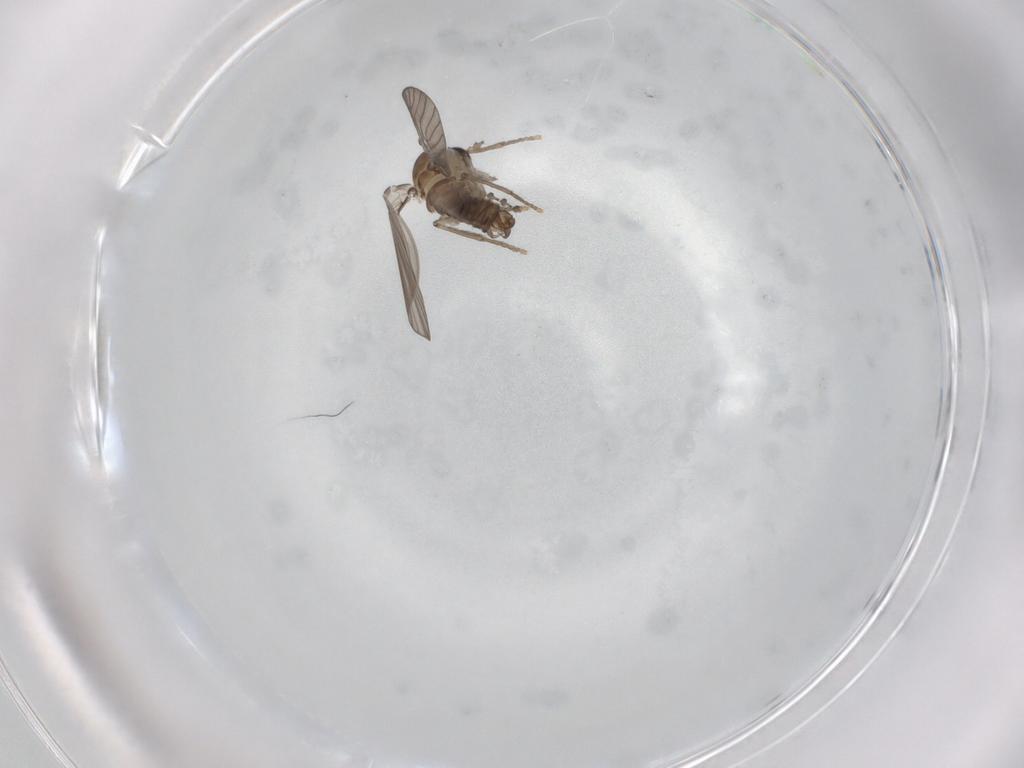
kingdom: Animalia
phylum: Arthropoda
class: Insecta
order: Diptera
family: Psychodidae
